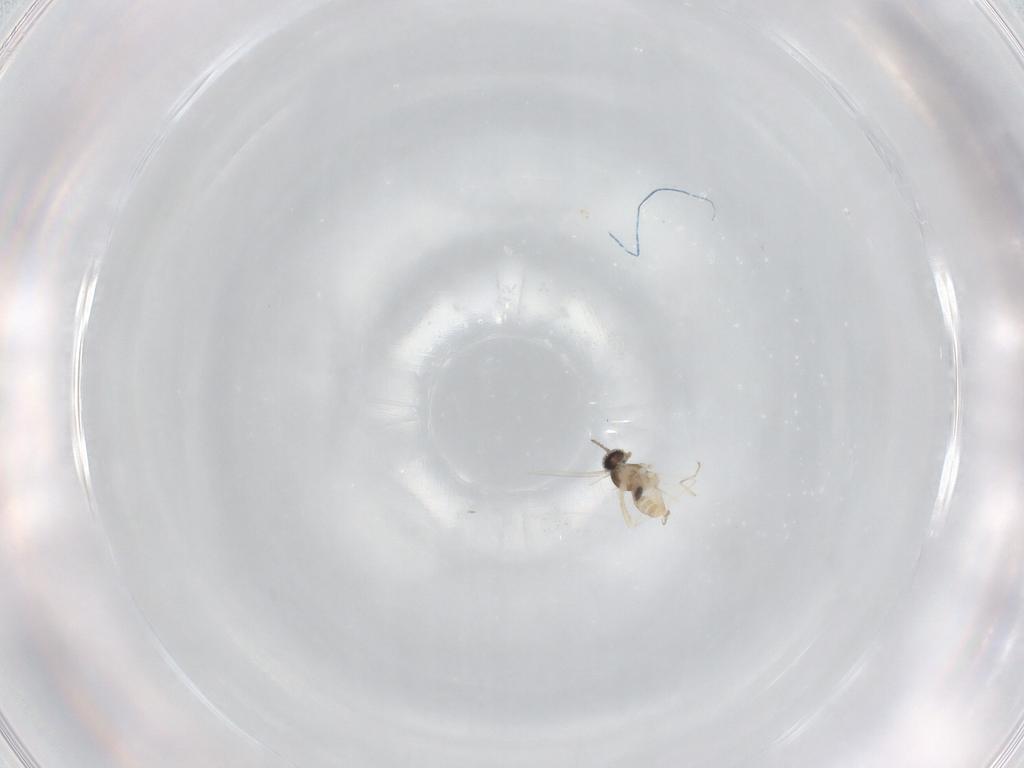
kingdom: Animalia
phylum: Arthropoda
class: Insecta
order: Diptera
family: Cecidomyiidae
